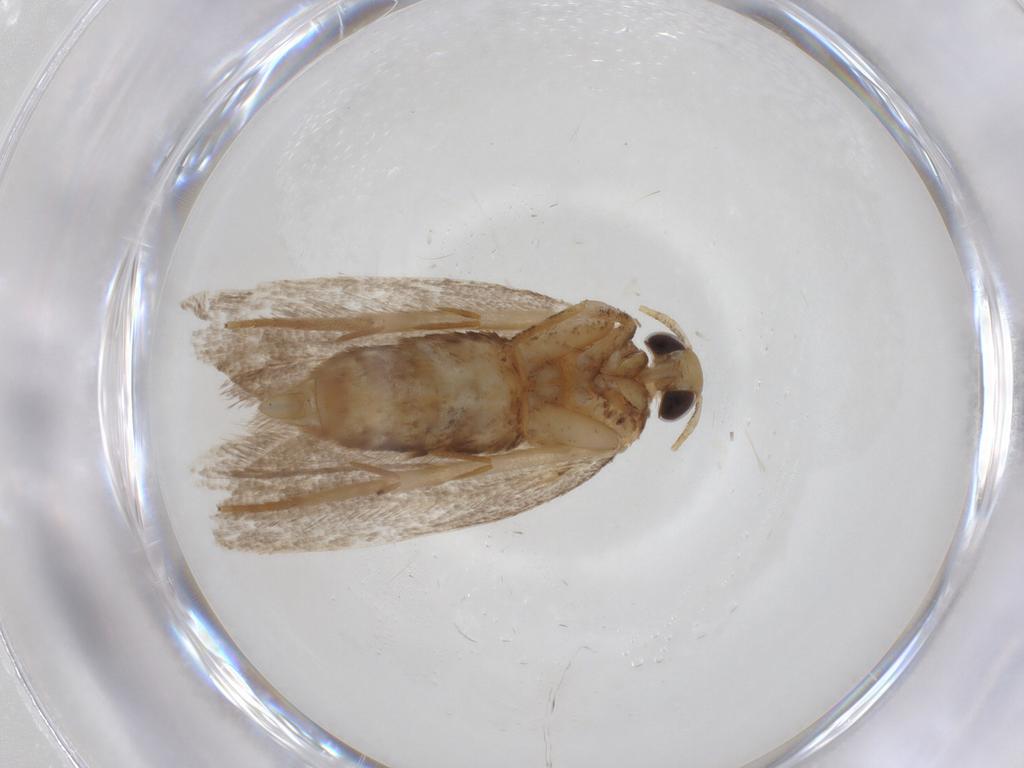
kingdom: Animalia
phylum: Arthropoda
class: Insecta
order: Lepidoptera
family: Oecophoridae
